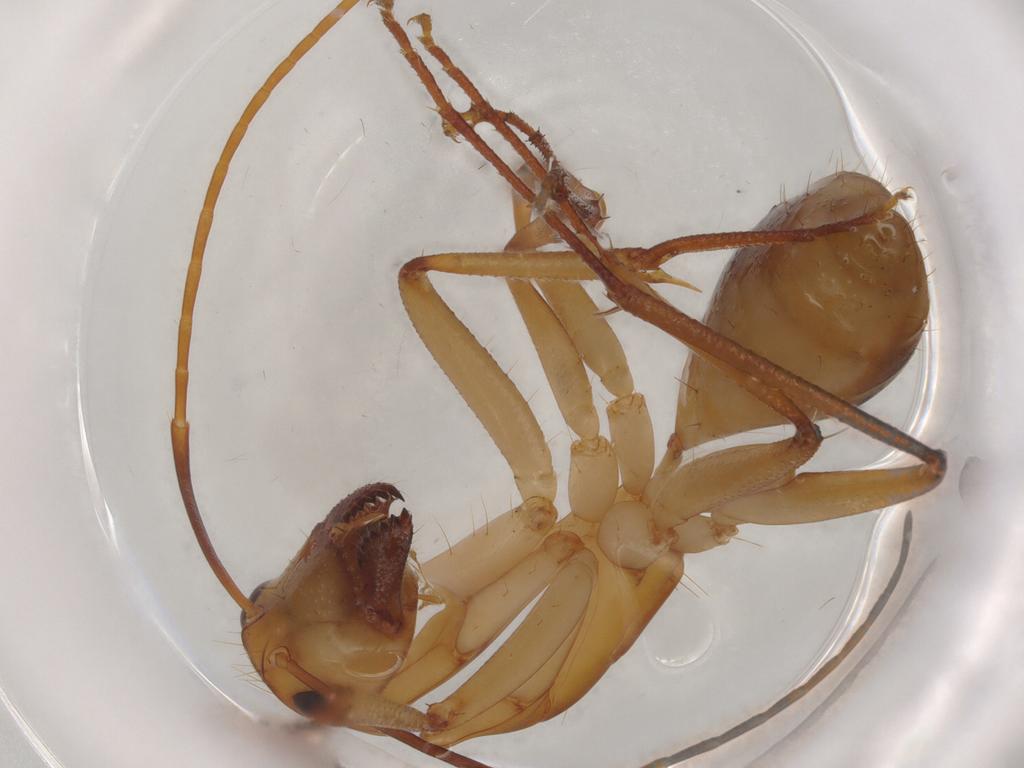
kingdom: Animalia
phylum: Arthropoda
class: Insecta
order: Hymenoptera
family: Formicidae
